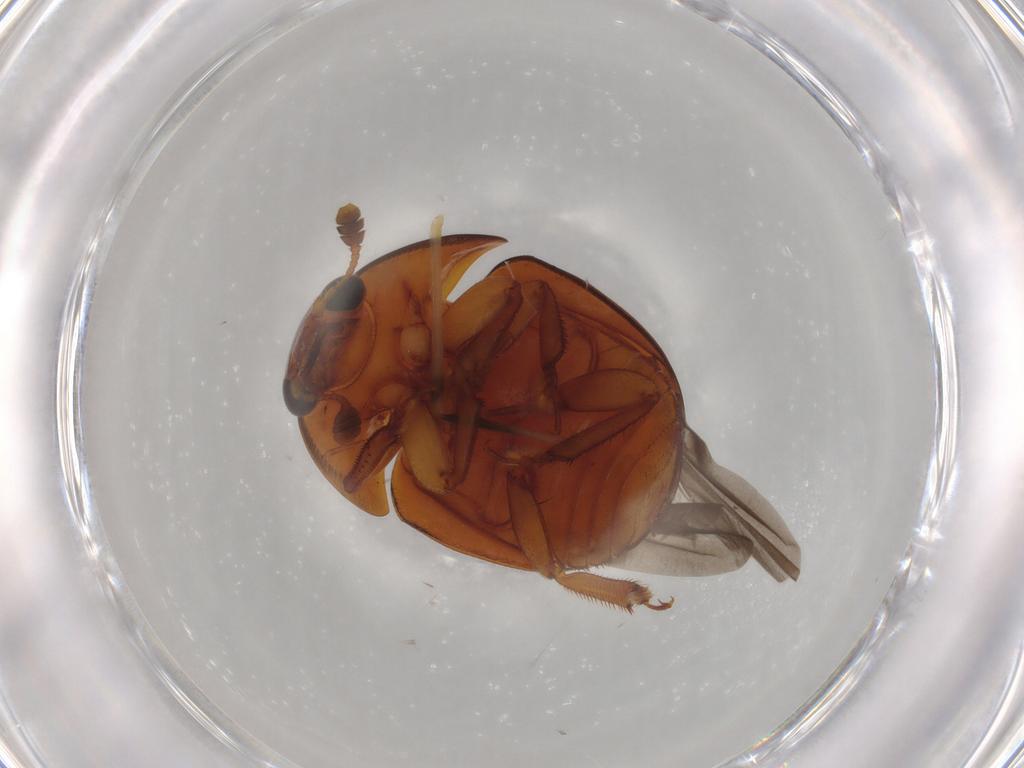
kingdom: Animalia
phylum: Arthropoda
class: Insecta
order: Coleoptera
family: Nitidulidae
